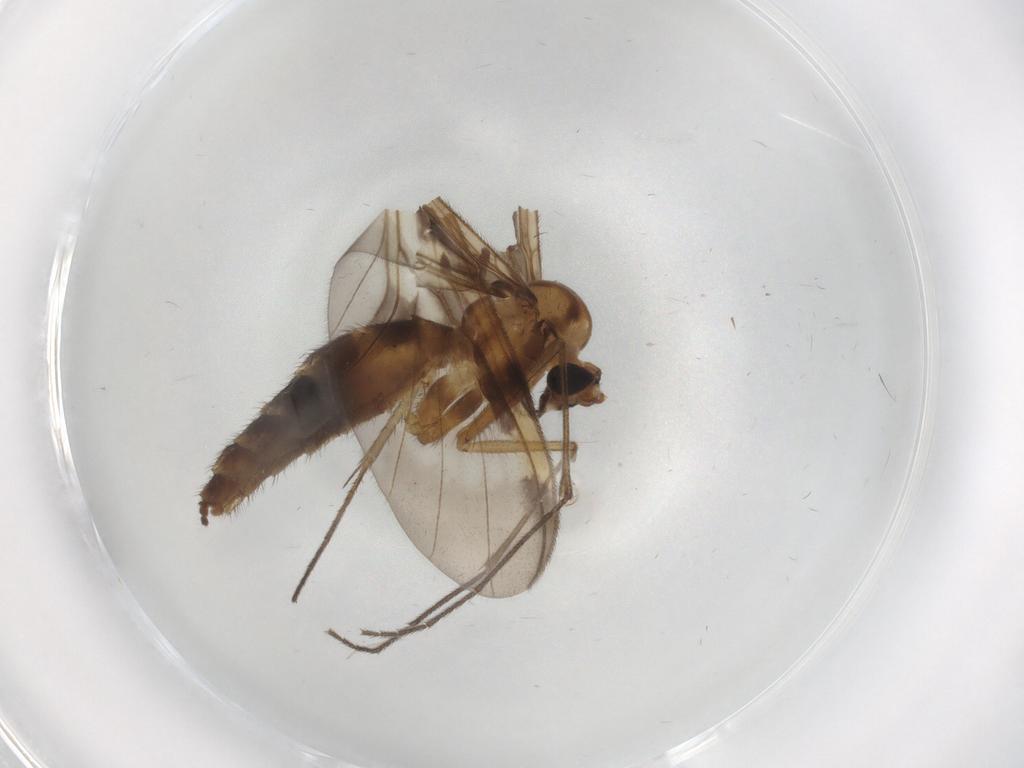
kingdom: Animalia
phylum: Arthropoda
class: Insecta
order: Diptera
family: Keroplatidae
